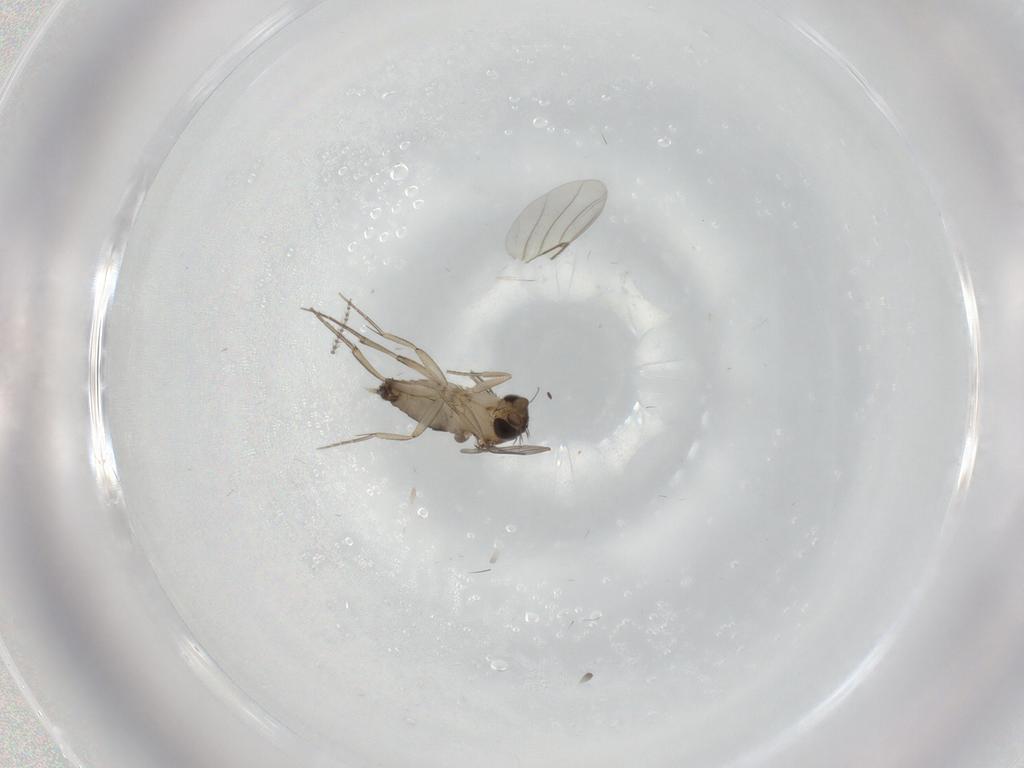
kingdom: Animalia
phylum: Arthropoda
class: Insecta
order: Diptera
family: Phoridae
